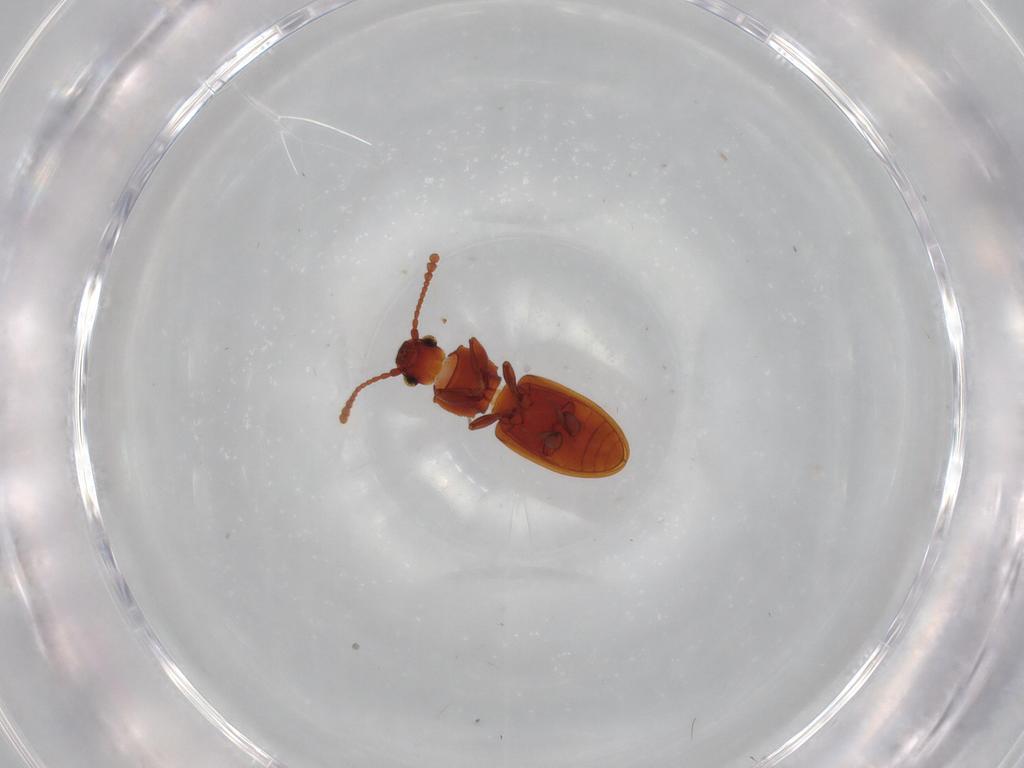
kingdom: Animalia
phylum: Arthropoda
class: Insecta
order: Coleoptera
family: Silvanidae
